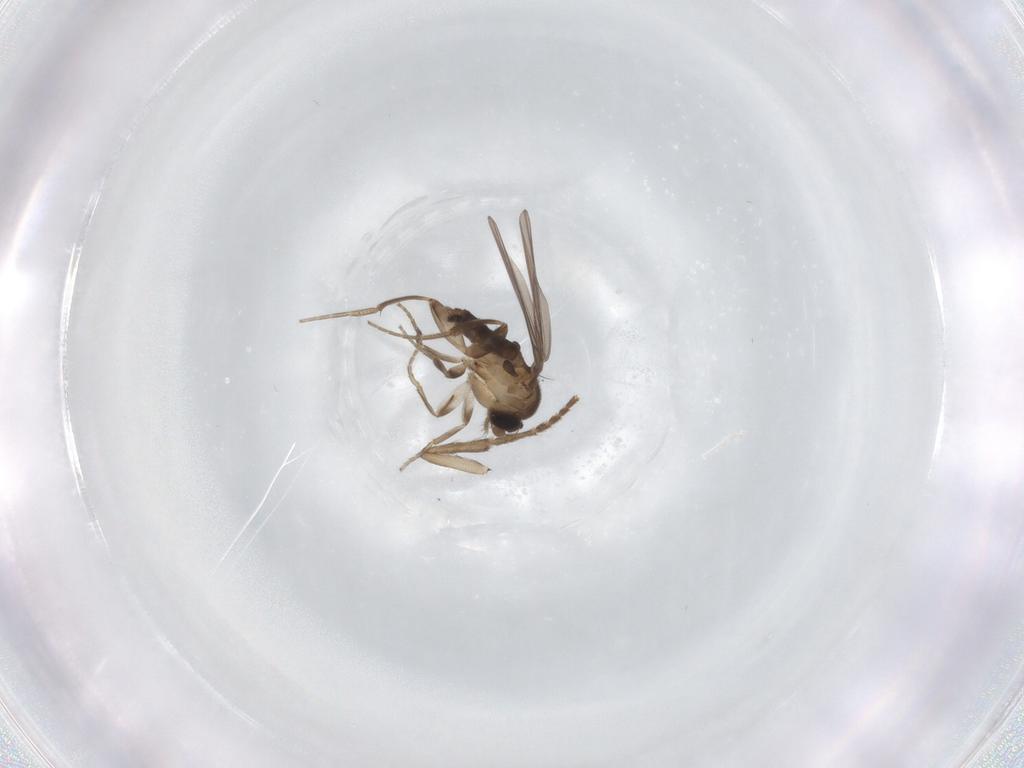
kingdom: Animalia
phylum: Arthropoda
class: Insecta
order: Diptera
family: Psychodidae
